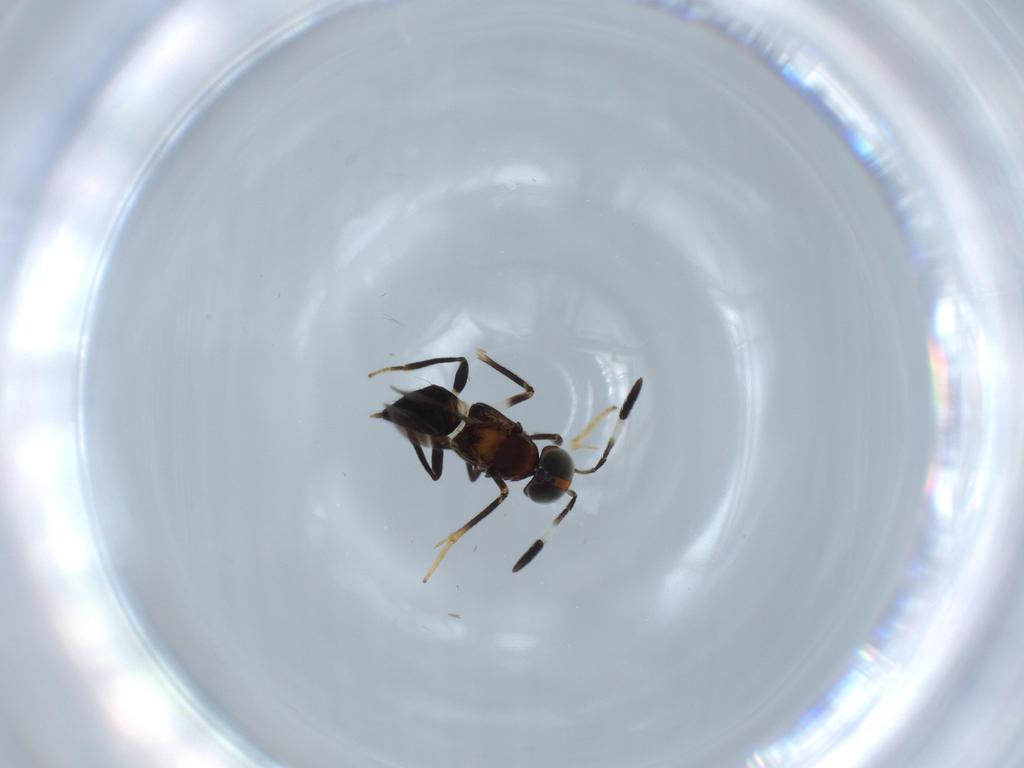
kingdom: Animalia
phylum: Arthropoda
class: Insecta
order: Hymenoptera
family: Encyrtidae
